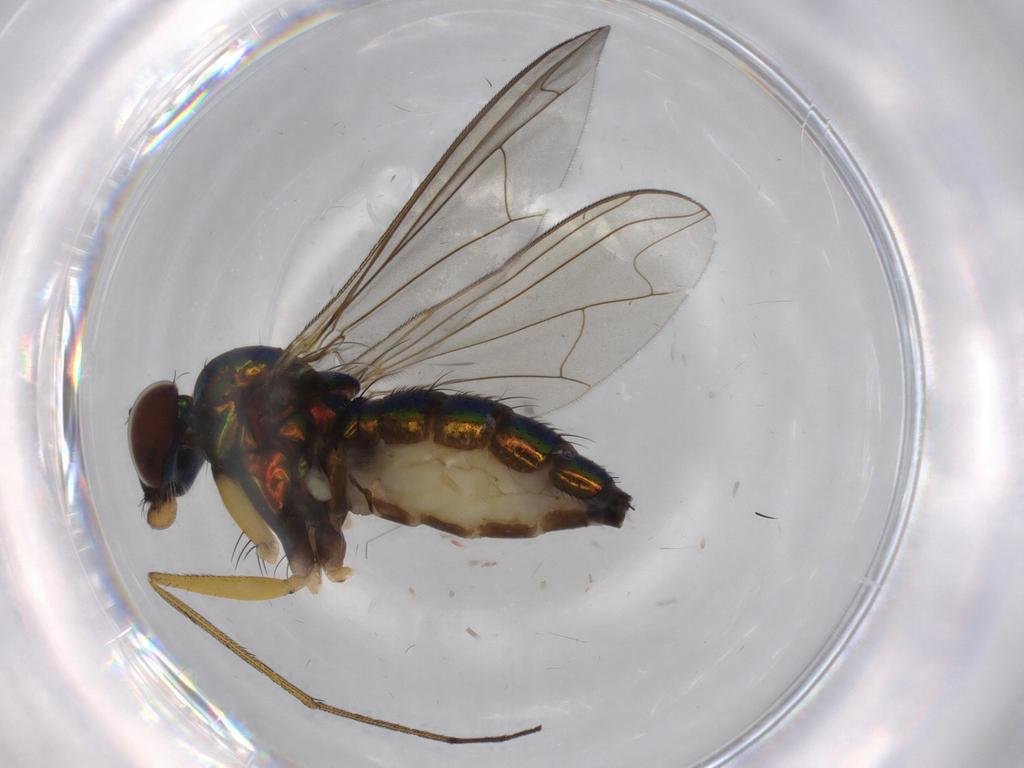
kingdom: Animalia
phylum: Arthropoda
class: Insecta
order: Diptera
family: Dolichopodidae
